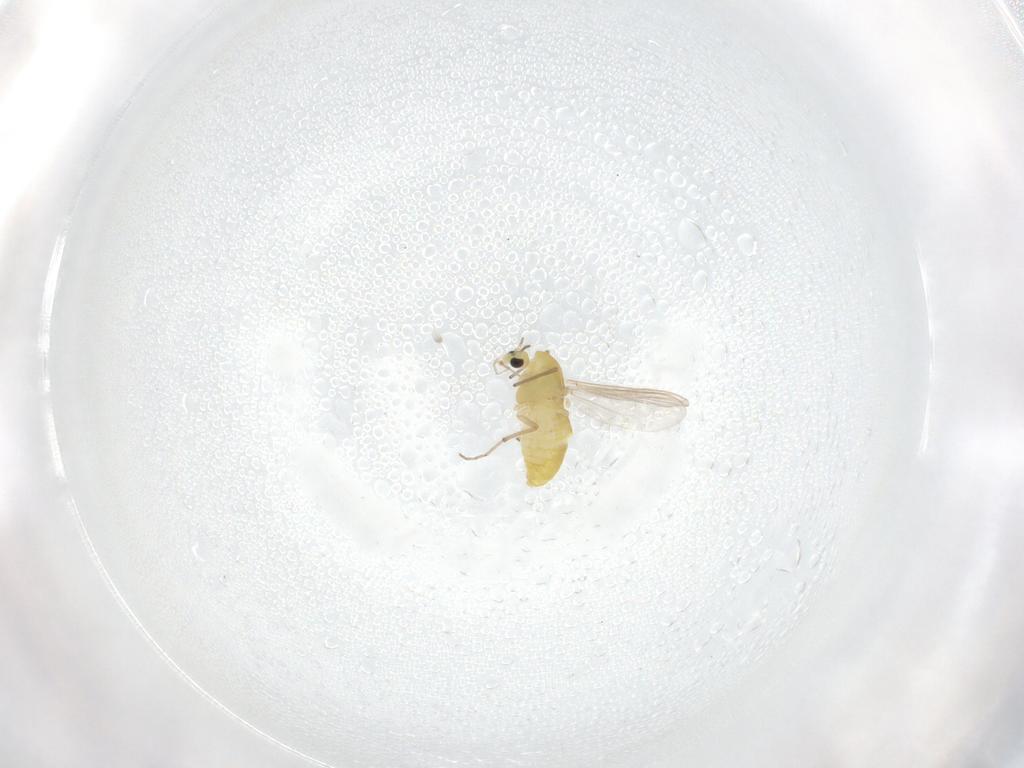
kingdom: Animalia
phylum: Arthropoda
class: Insecta
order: Diptera
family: Chironomidae
